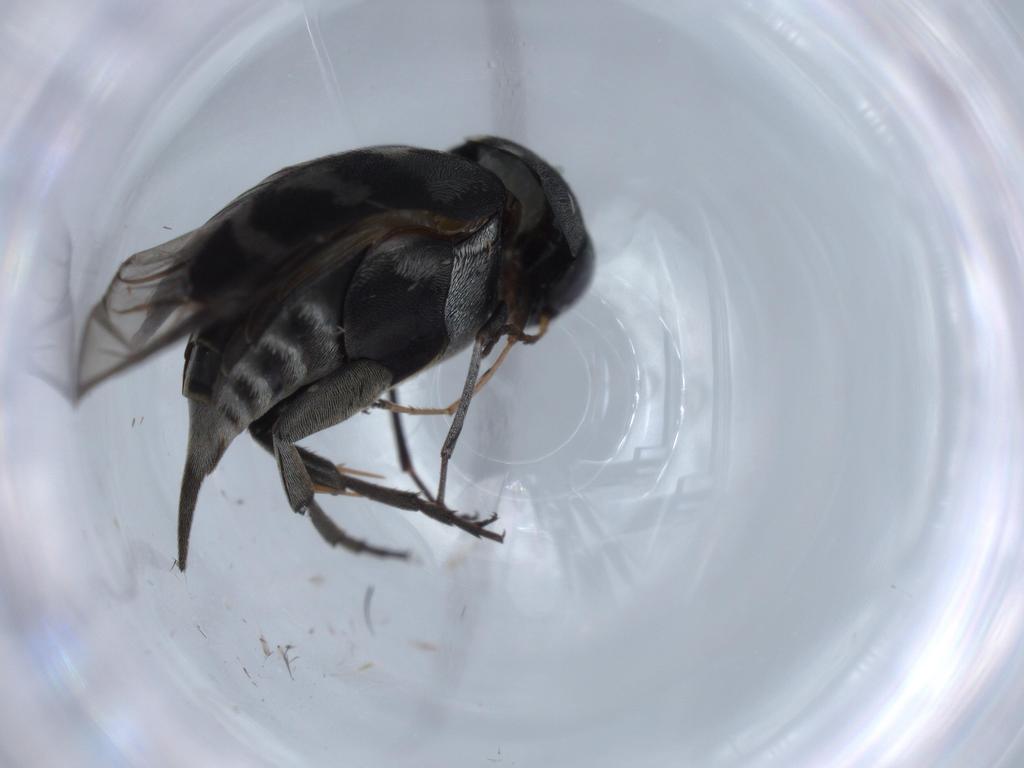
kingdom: Animalia
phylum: Arthropoda
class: Insecta
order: Coleoptera
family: Mordellidae
